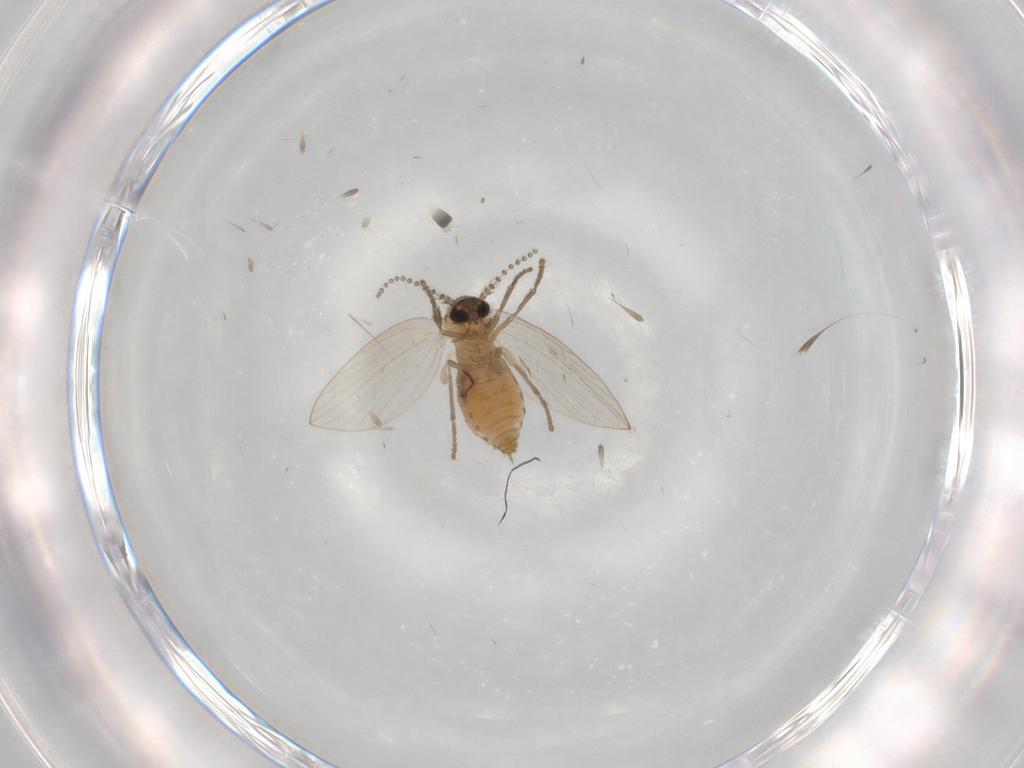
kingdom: Animalia
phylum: Arthropoda
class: Insecta
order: Diptera
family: Psychodidae
